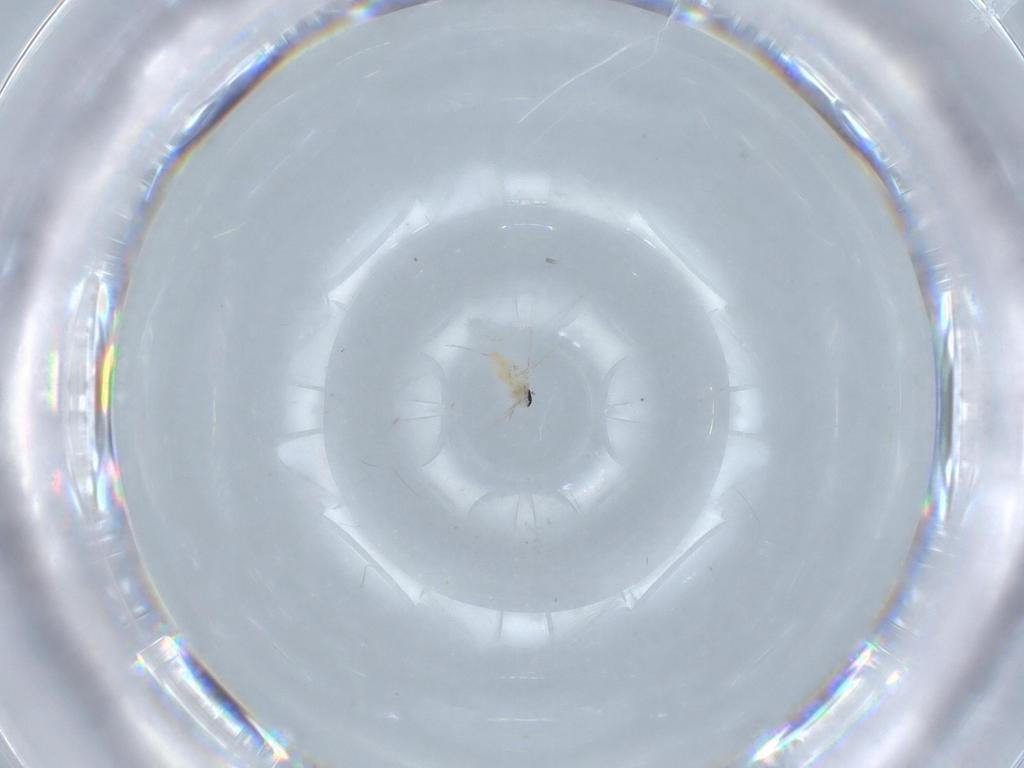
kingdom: Animalia
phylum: Arthropoda
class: Insecta
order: Diptera
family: Cecidomyiidae
